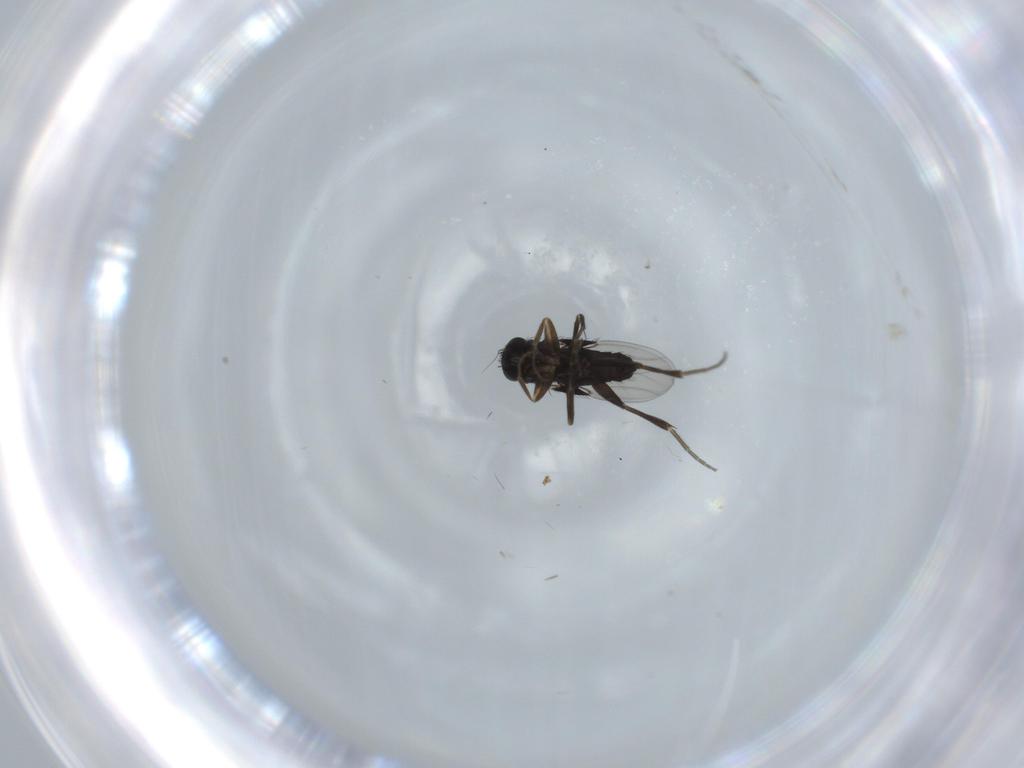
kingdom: Animalia
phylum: Arthropoda
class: Insecta
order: Diptera
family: Phoridae
